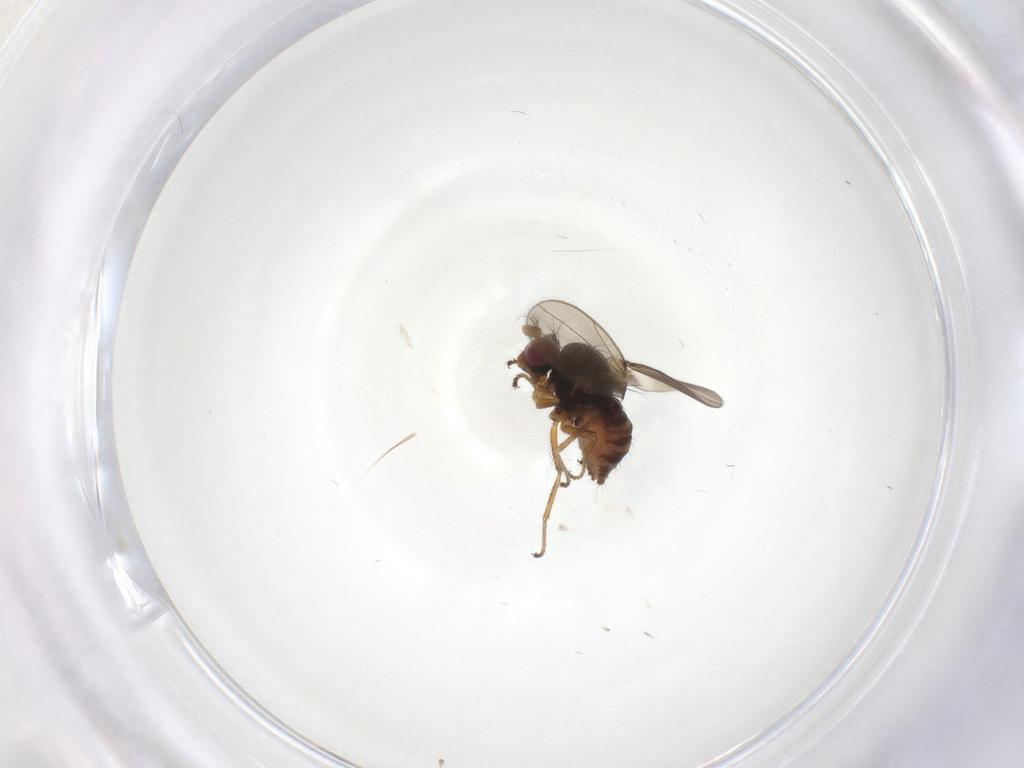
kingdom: Animalia
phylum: Arthropoda
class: Insecta
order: Diptera
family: Ephydridae
